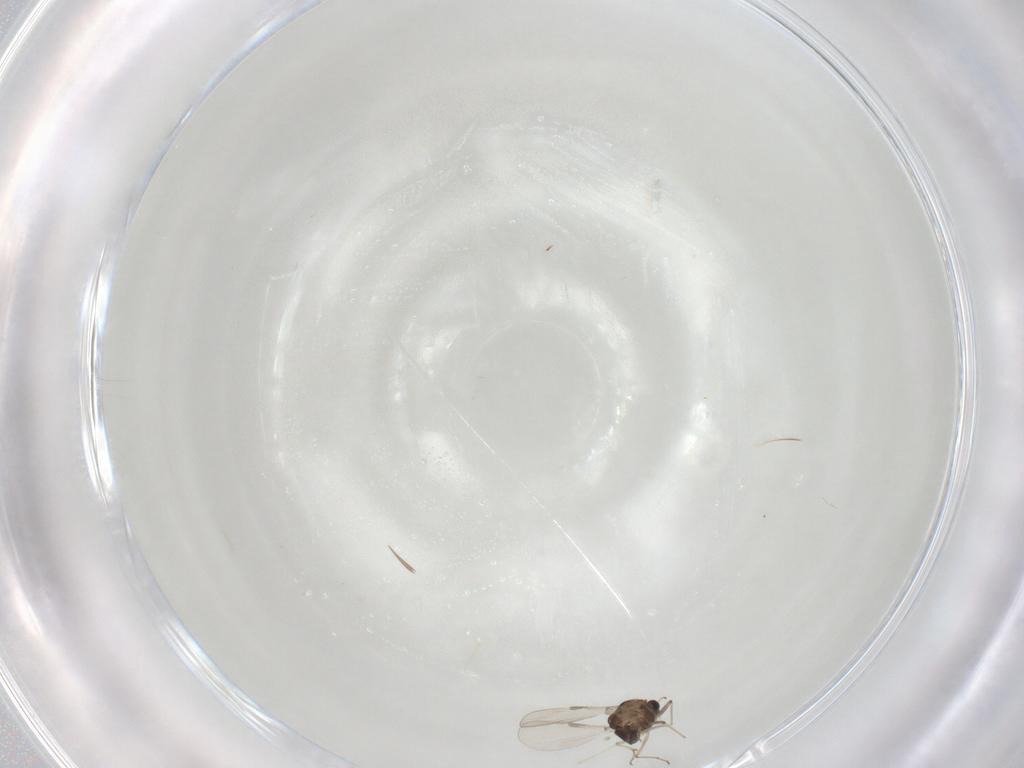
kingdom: Animalia
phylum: Arthropoda
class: Insecta
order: Diptera
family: Chironomidae
